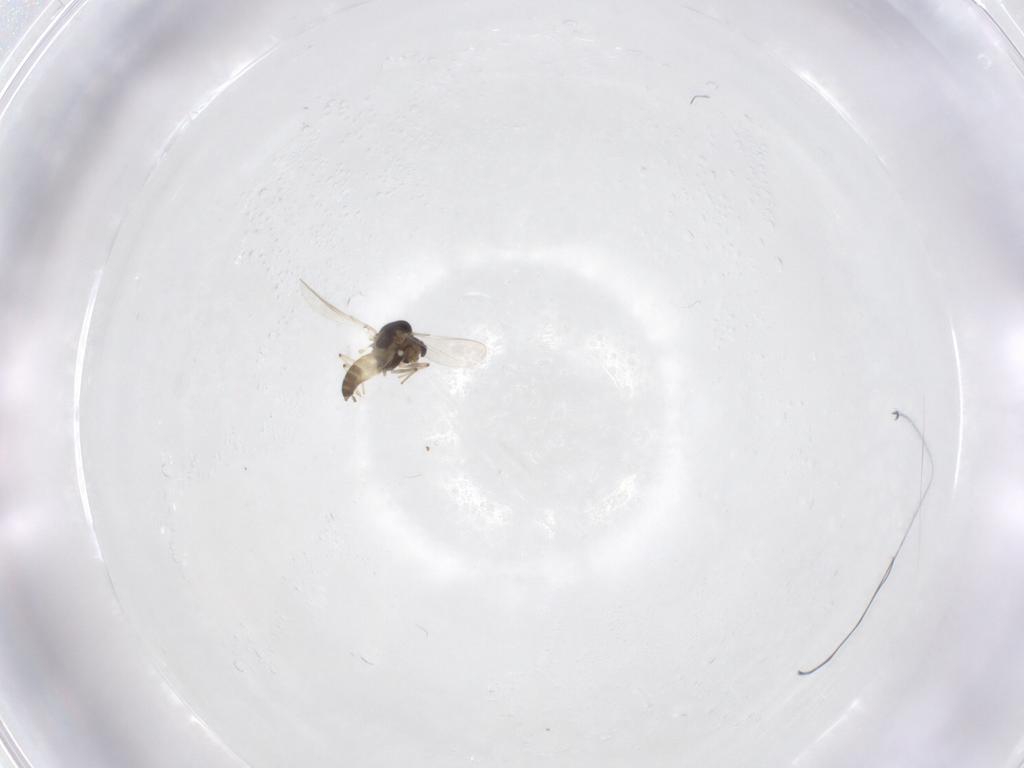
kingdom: Animalia
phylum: Arthropoda
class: Insecta
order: Diptera
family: Chironomidae
